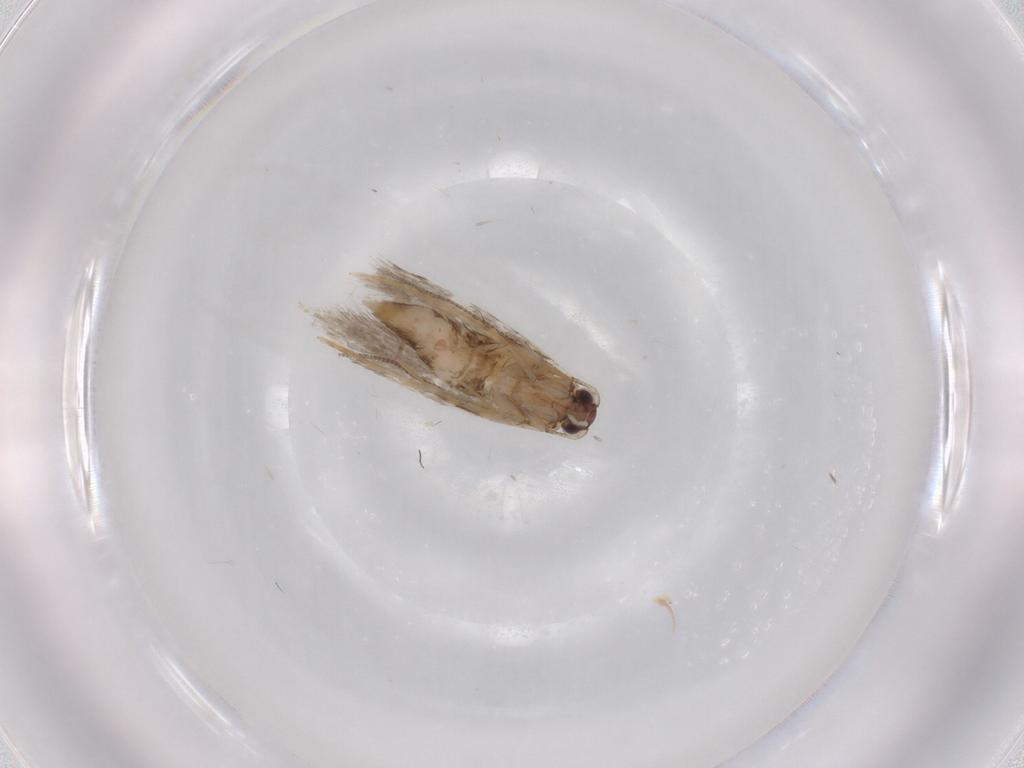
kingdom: Animalia
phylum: Arthropoda
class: Insecta
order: Lepidoptera
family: Gelechiidae
